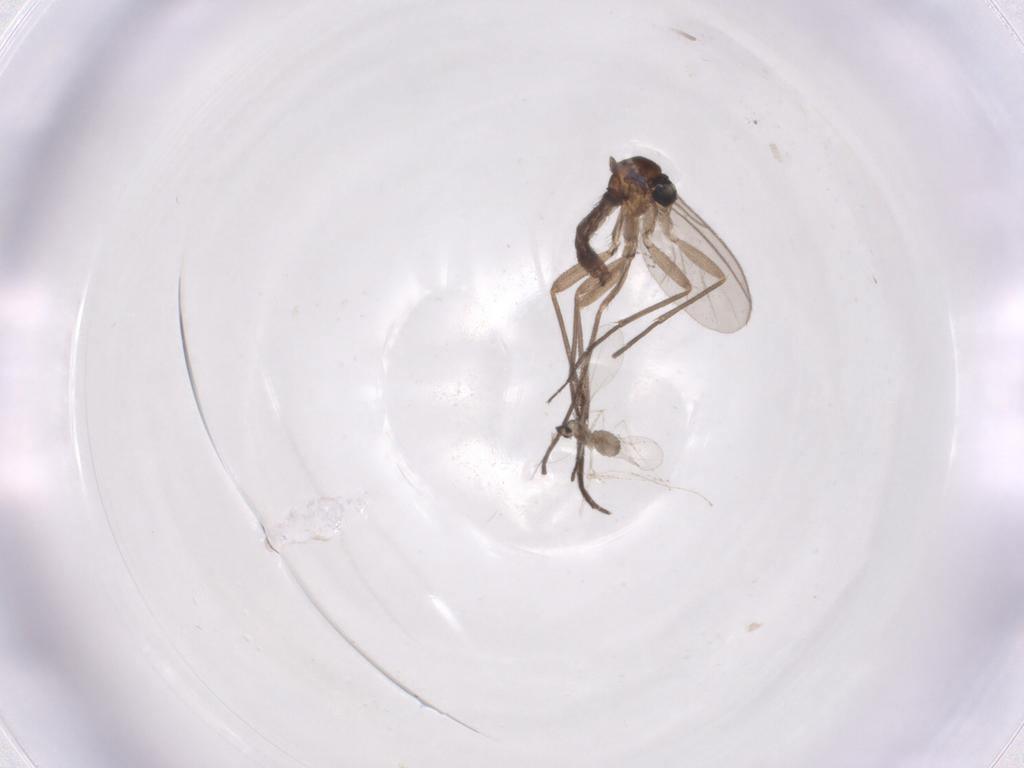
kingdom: Animalia
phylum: Arthropoda
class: Insecta
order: Diptera
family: Cecidomyiidae
